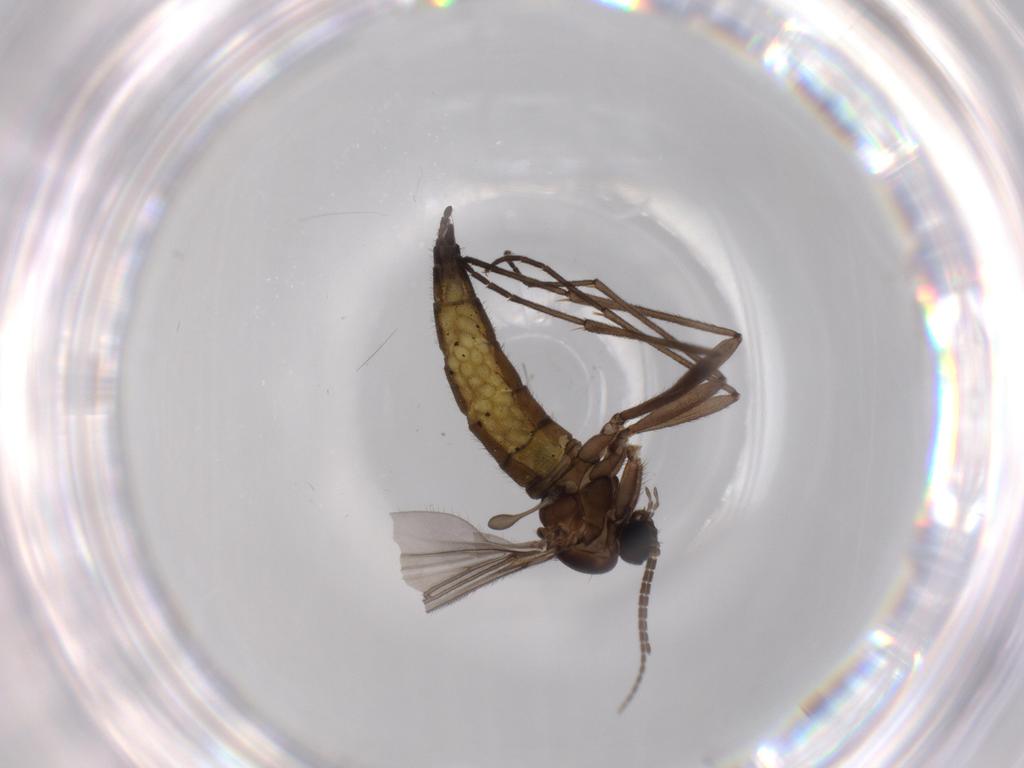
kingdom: Animalia
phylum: Arthropoda
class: Insecta
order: Diptera
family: Sciaridae
